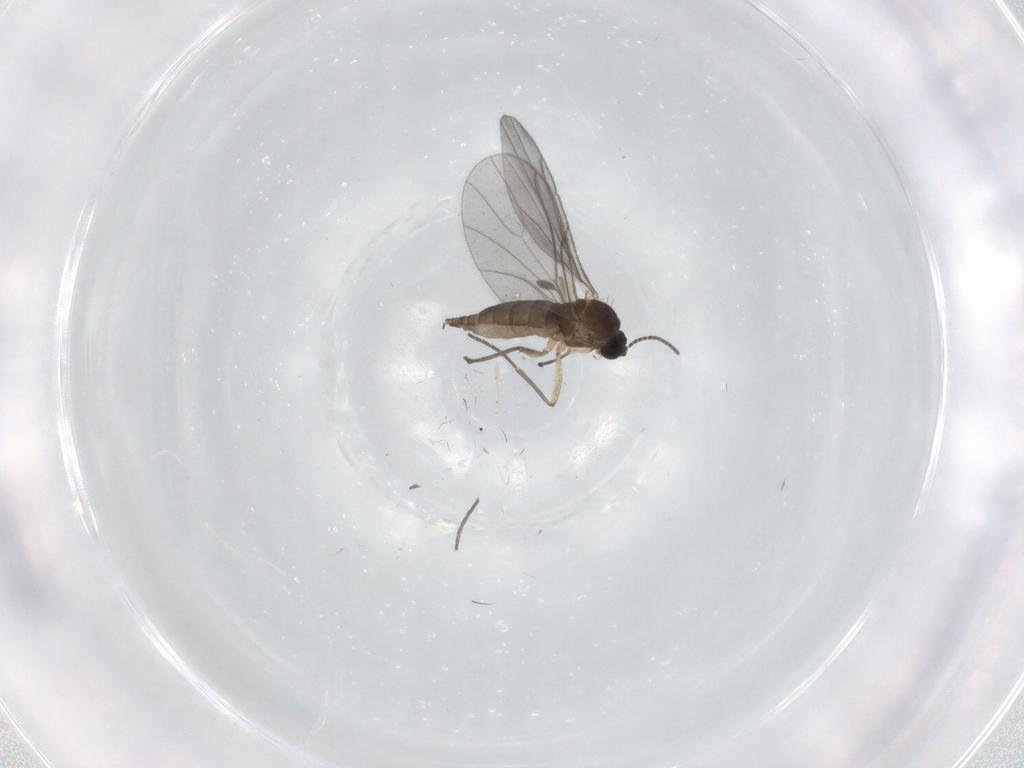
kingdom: Animalia
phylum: Arthropoda
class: Insecta
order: Diptera
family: Sciaridae
